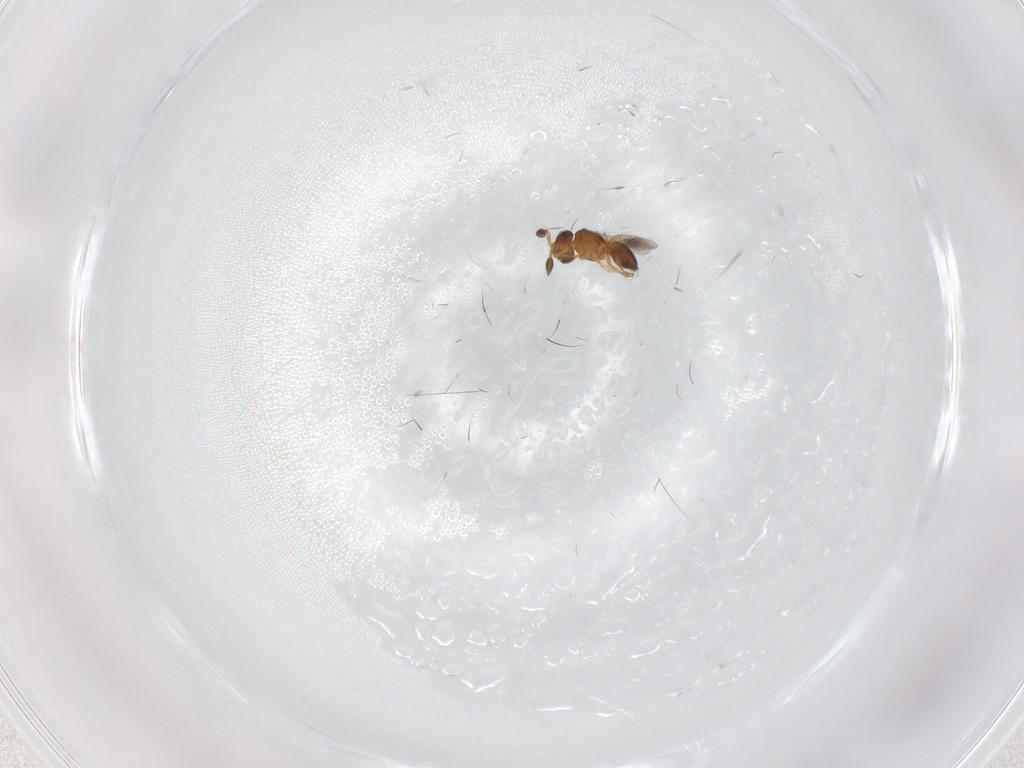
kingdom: Animalia
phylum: Arthropoda
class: Insecta
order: Hymenoptera
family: Scelionidae
